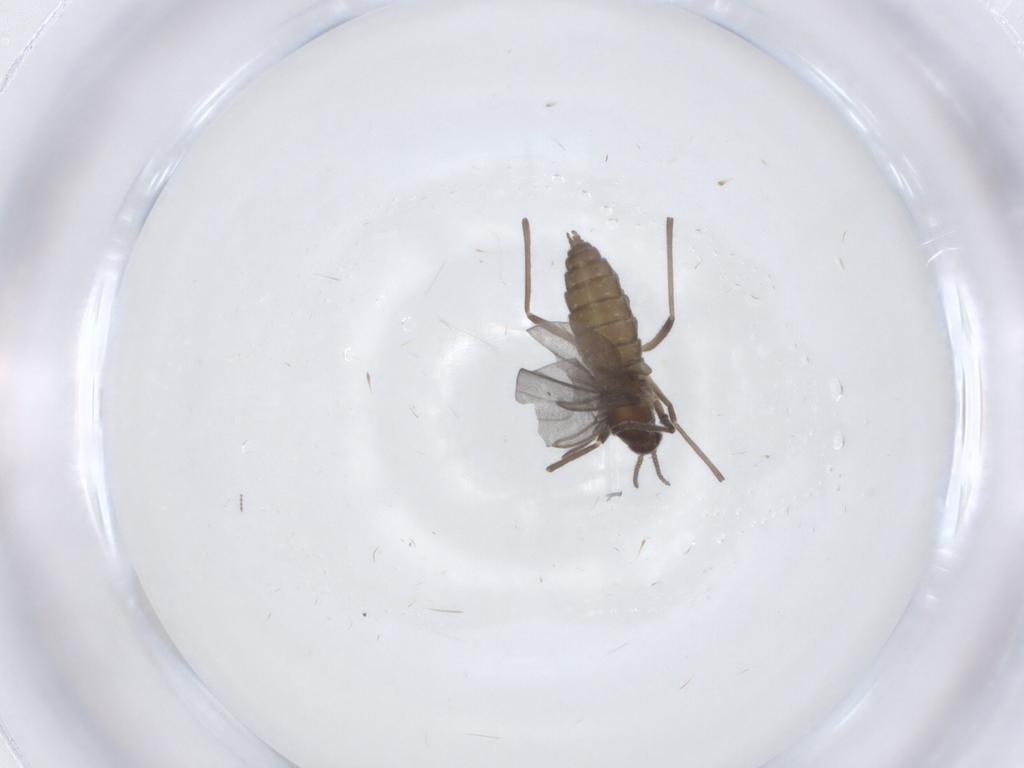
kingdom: Animalia
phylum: Arthropoda
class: Insecta
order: Diptera
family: Cecidomyiidae
